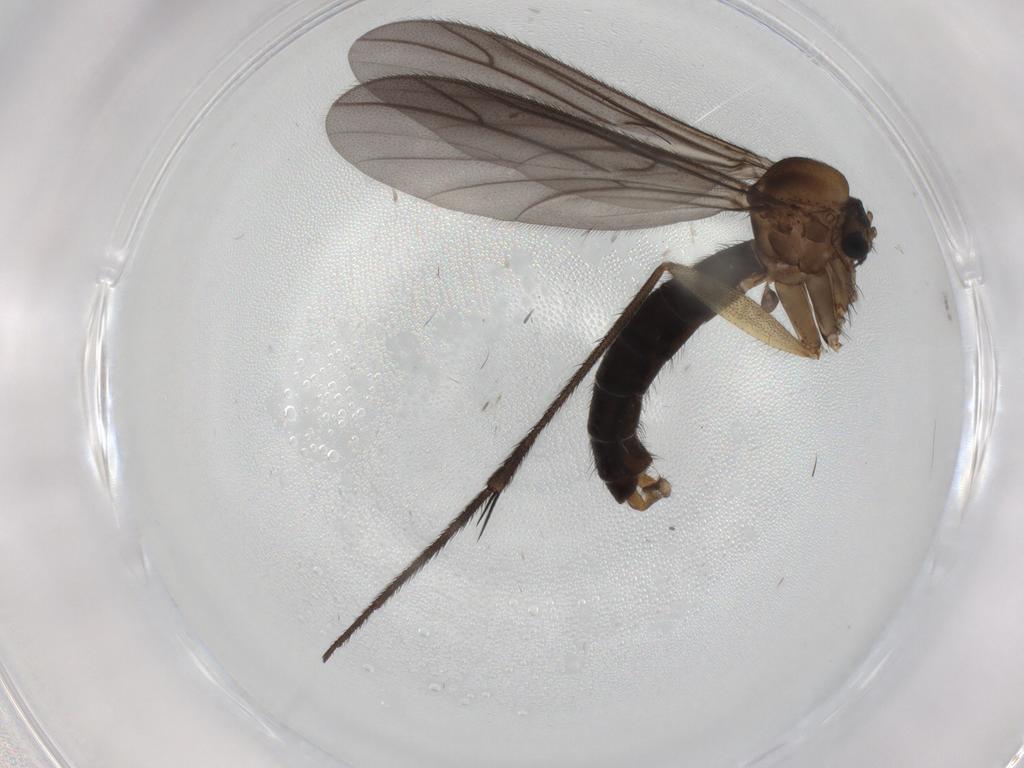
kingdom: Animalia
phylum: Arthropoda
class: Insecta
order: Diptera
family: Ditomyiidae
